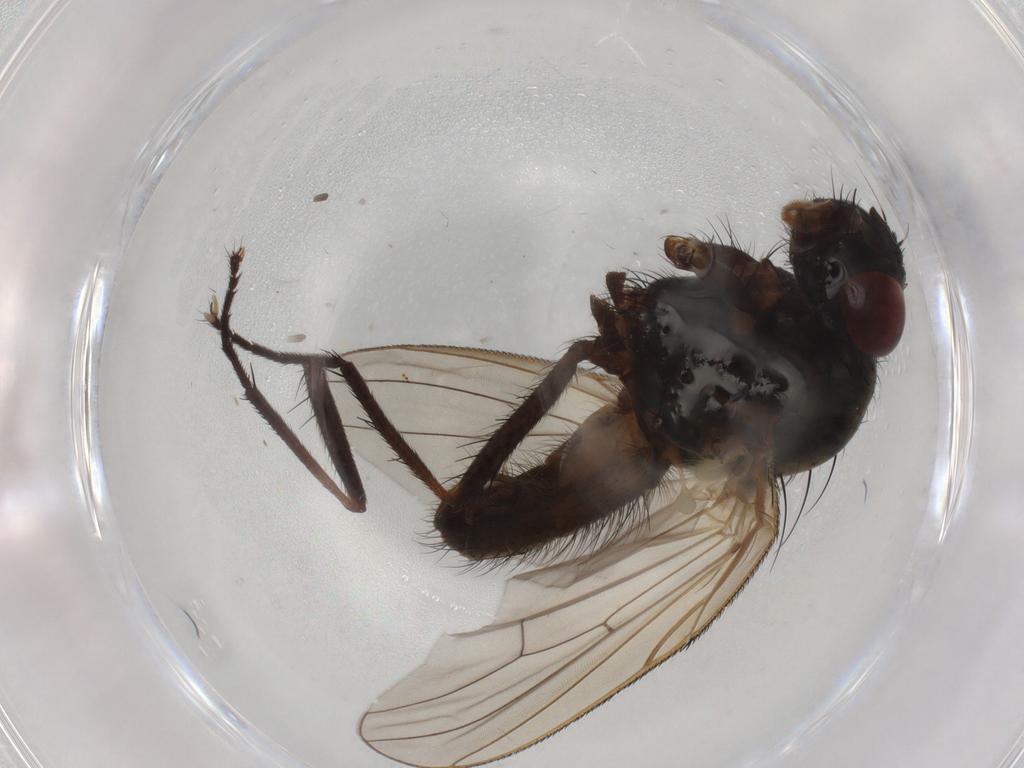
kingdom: Animalia
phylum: Arthropoda
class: Insecta
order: Diptera
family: Anthomyiidae
